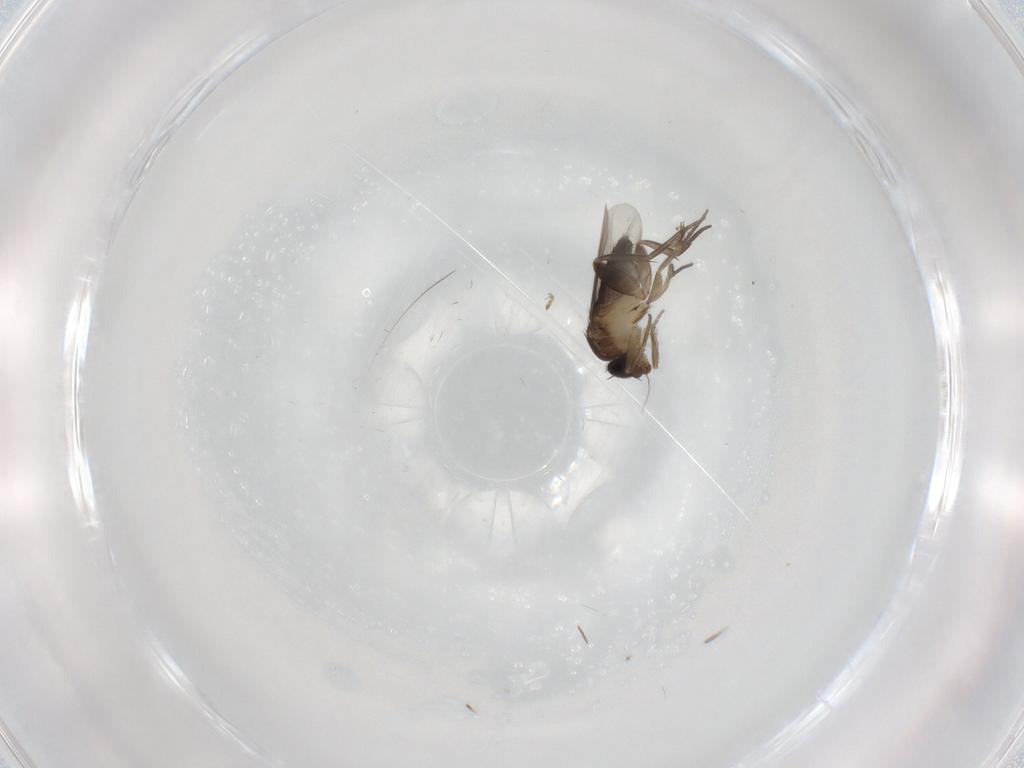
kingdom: Animalia
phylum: Arthropoda
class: Insecta
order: Diptera
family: Phoridae
